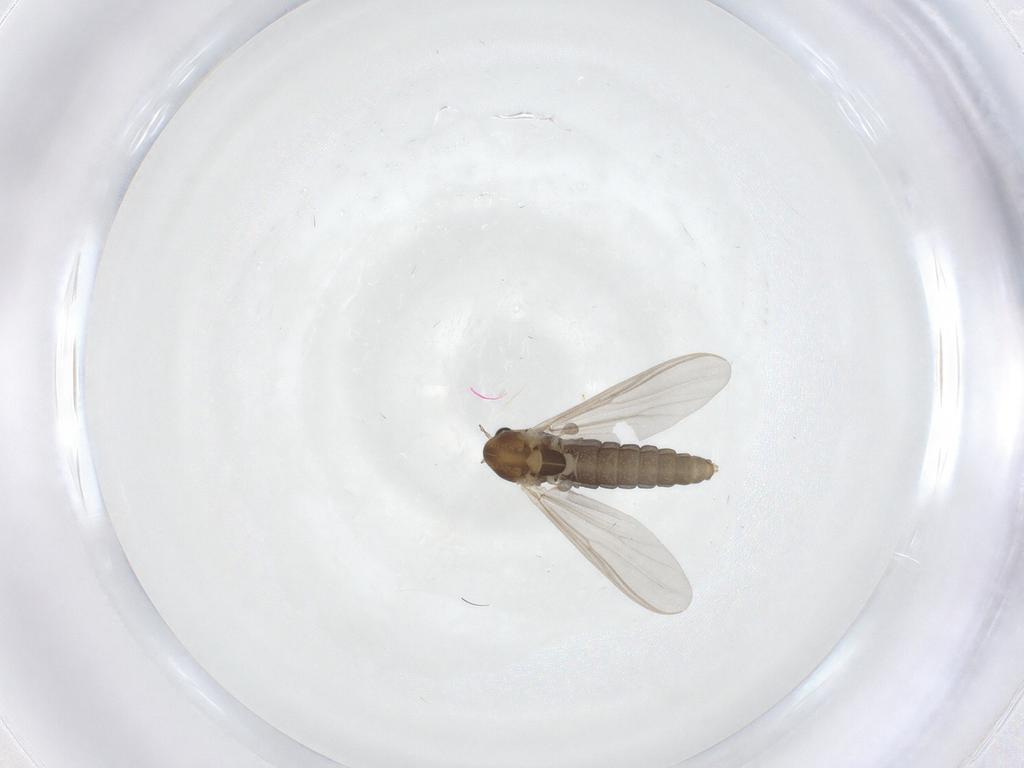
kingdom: Animalia
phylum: Arthropoda
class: Insecta
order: Diptera
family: Chironomidae
